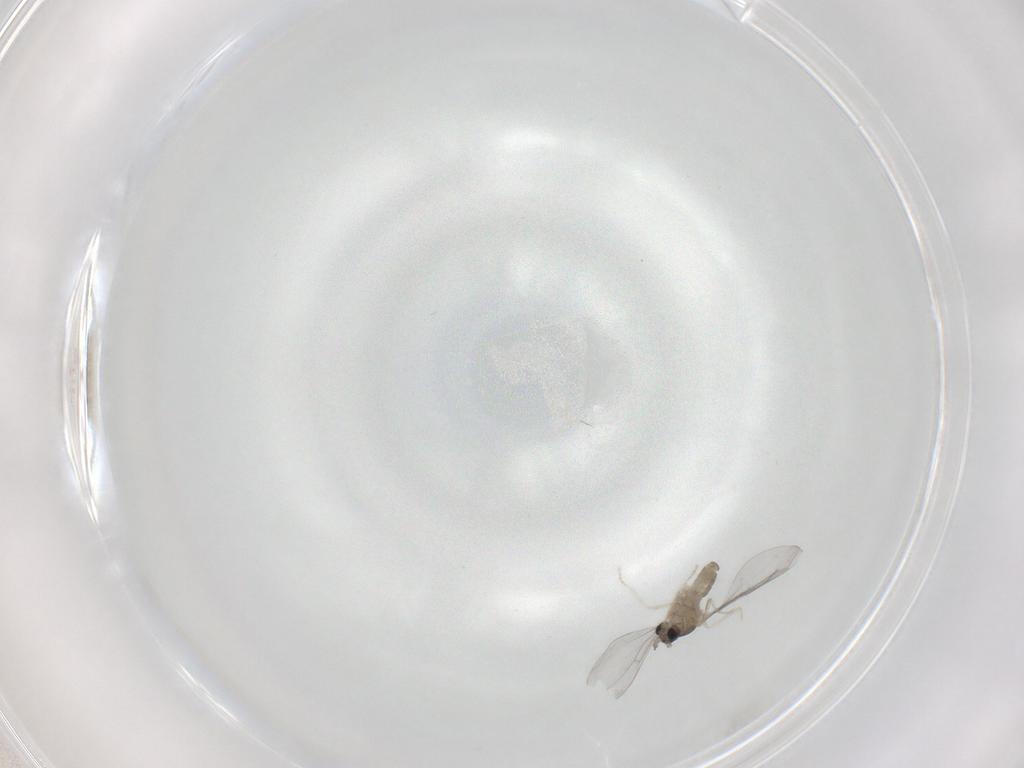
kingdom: Animalia
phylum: Arthropoda
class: Insecta
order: Diptera
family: Cecidomyiidae
